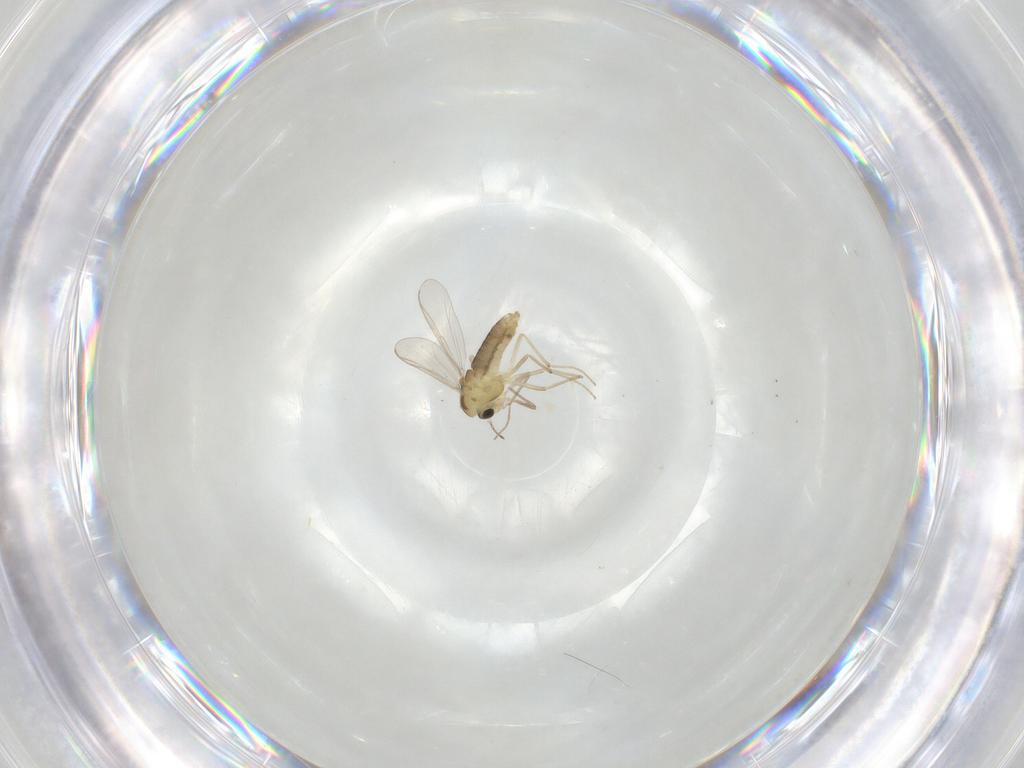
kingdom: Animalia
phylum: Arthropoda
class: Insecta
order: Diptera
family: Chironomidae
